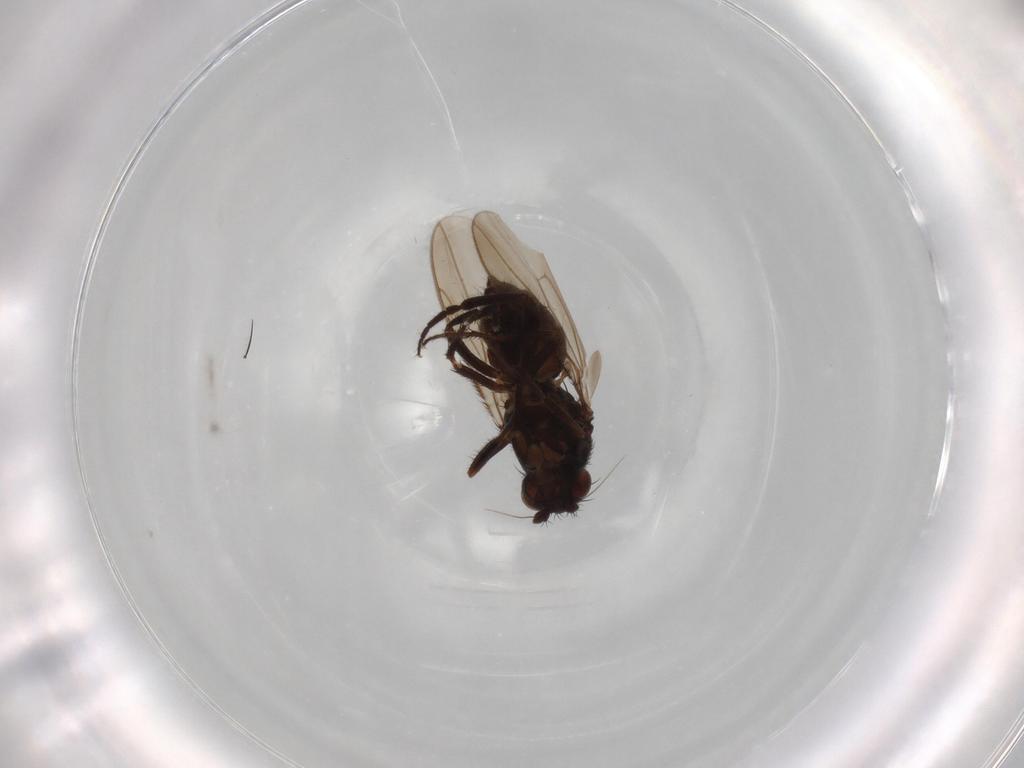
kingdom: Animalia
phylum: Arthropoda
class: Insecta
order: Diptera
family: Sphaeroceridae
